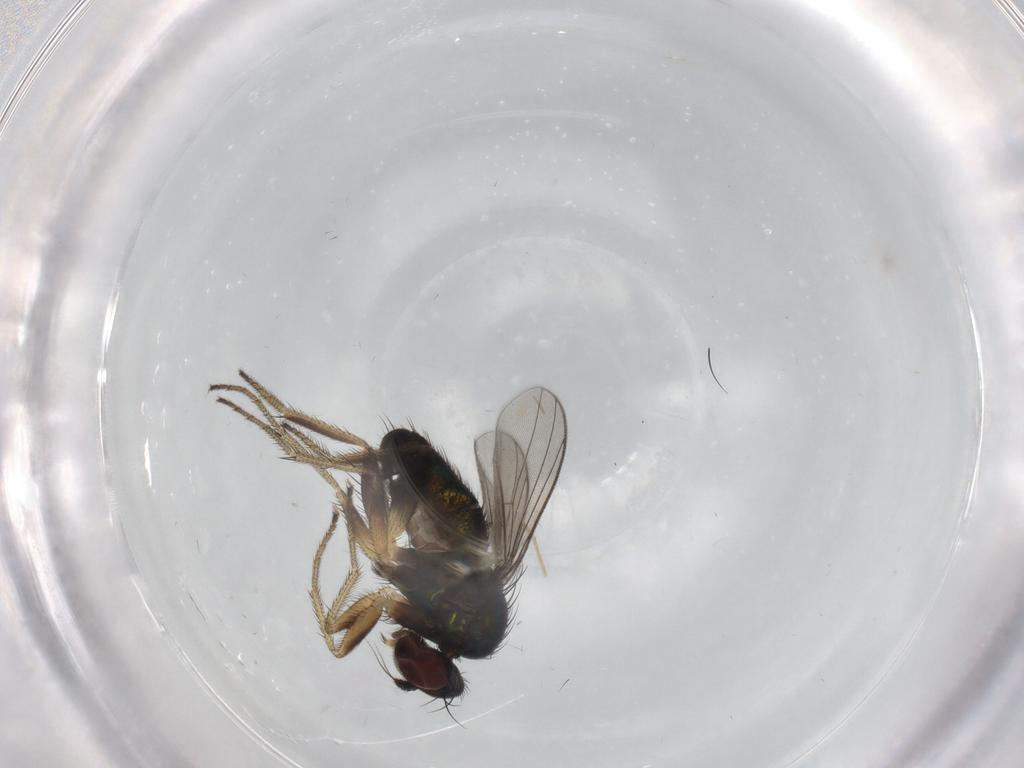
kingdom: Animalia
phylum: Arthropoda
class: Insecta
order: Diptera
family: Dolichopodidae
